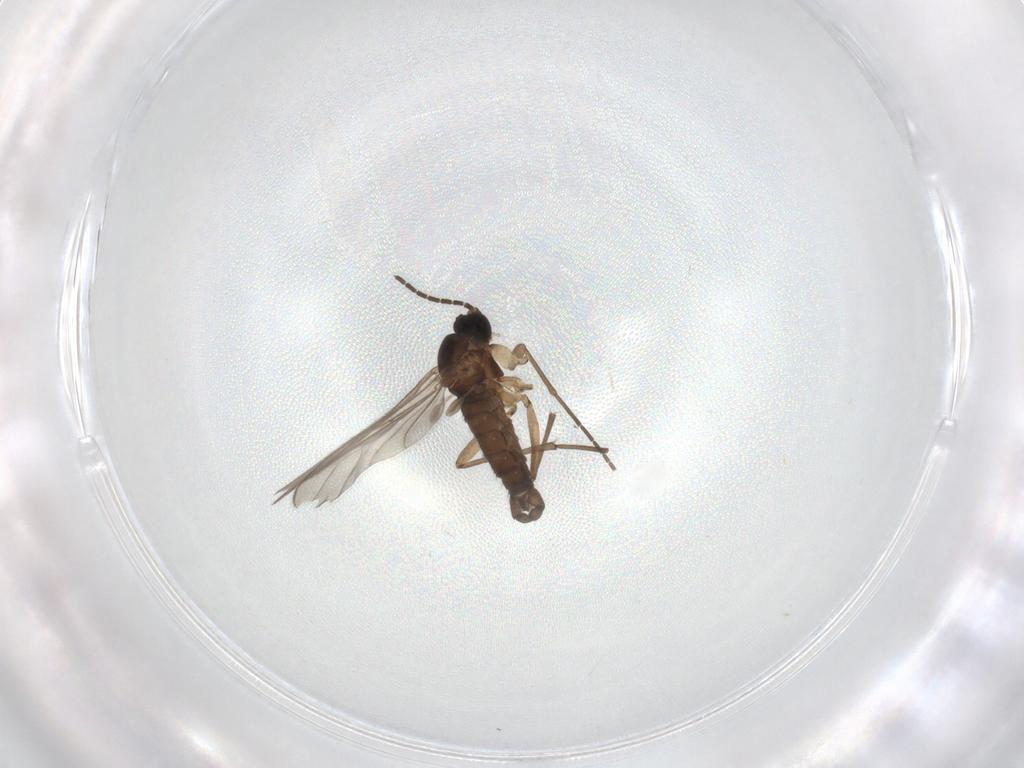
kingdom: Animalia
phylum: Arthropoda
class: Insecta
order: Diptera
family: Sciaridae
